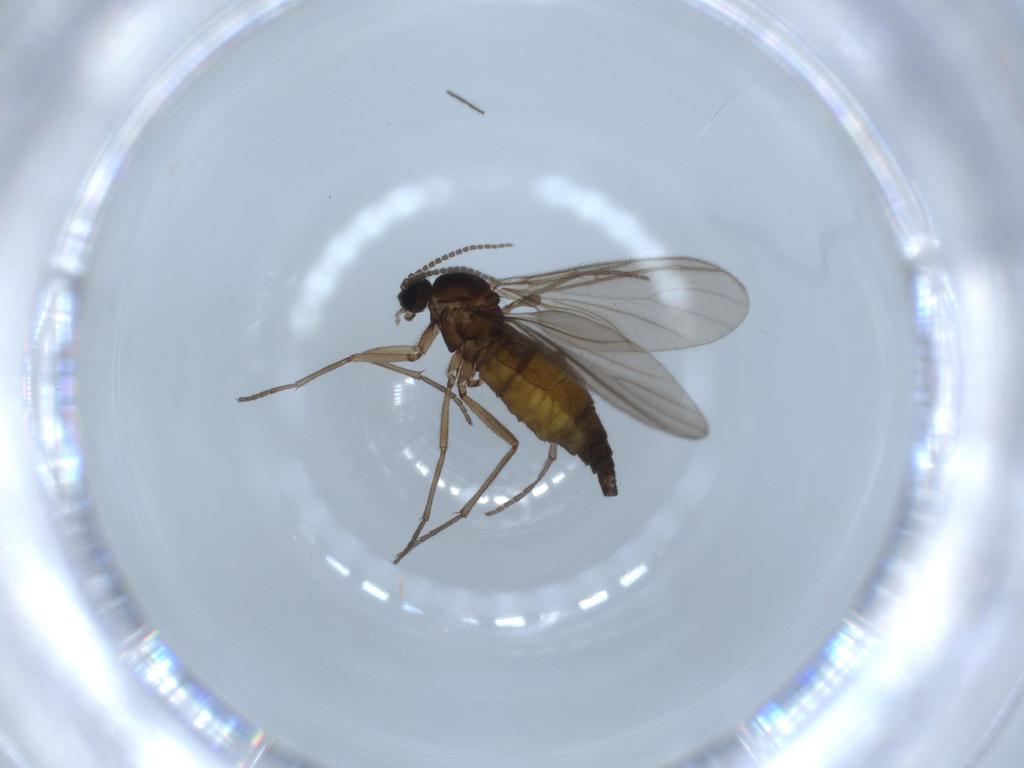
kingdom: Animalia
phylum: Arthropoda
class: Insecta
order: Diptera
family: Sciaridae
